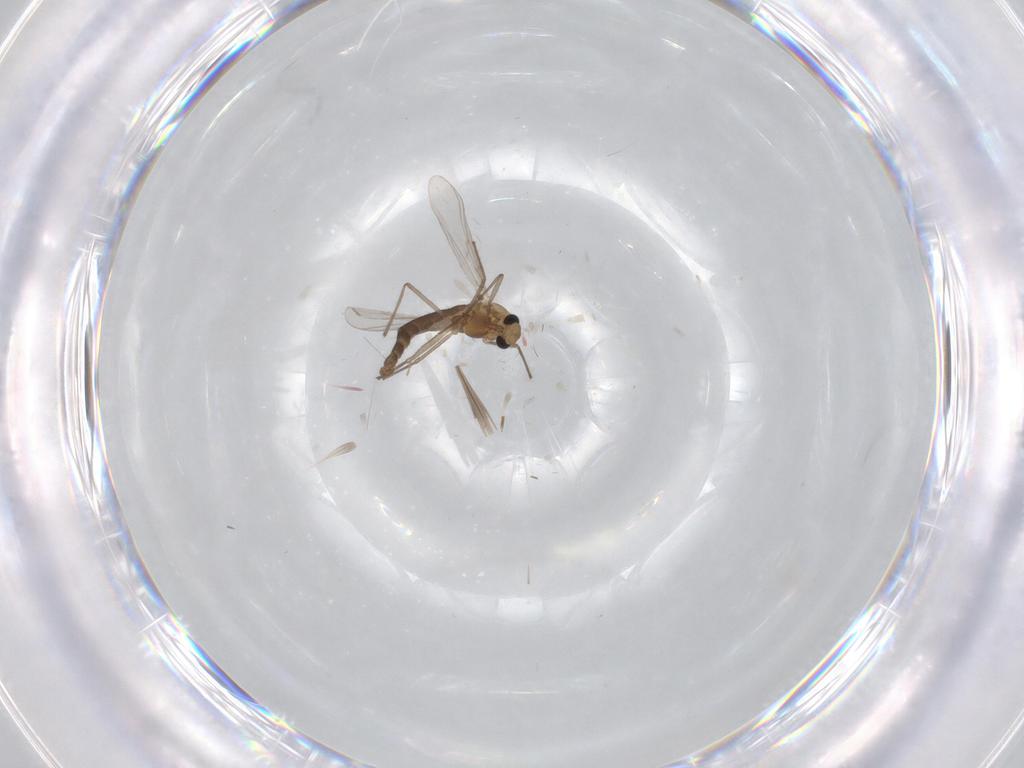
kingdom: Animalia
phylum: Arthropoda
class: Insecta
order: Diptera
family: Chironomidae
